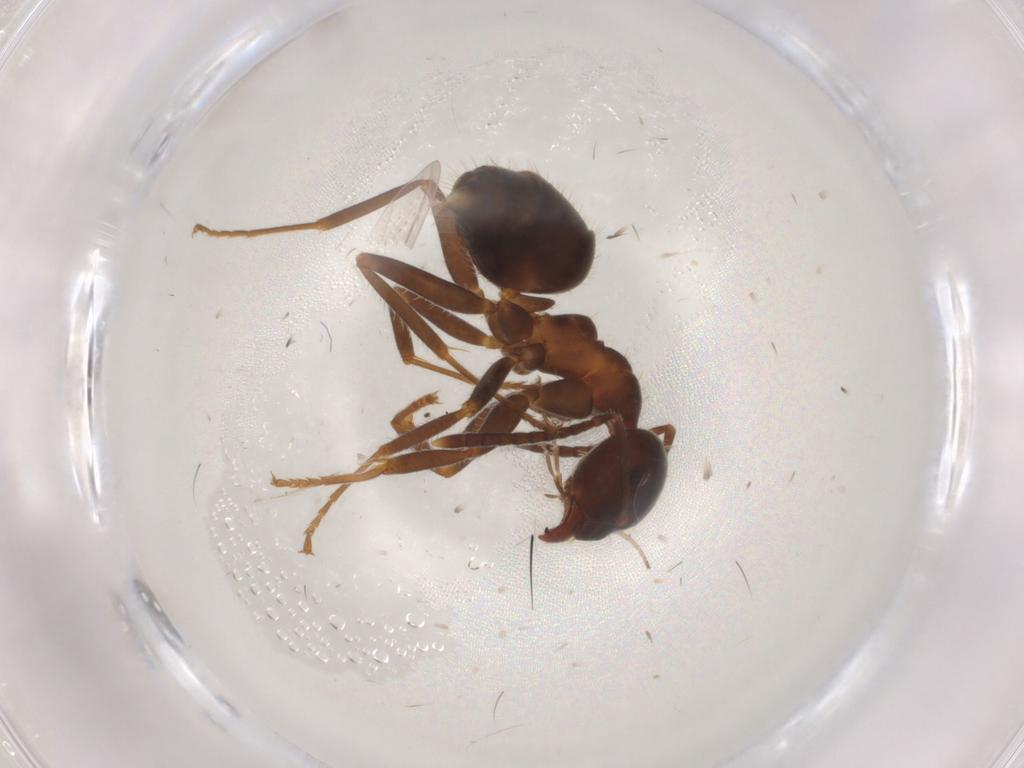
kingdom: Animalia
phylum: Arthropoda
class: Insecta
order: Hymenoptera
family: Formicidae
